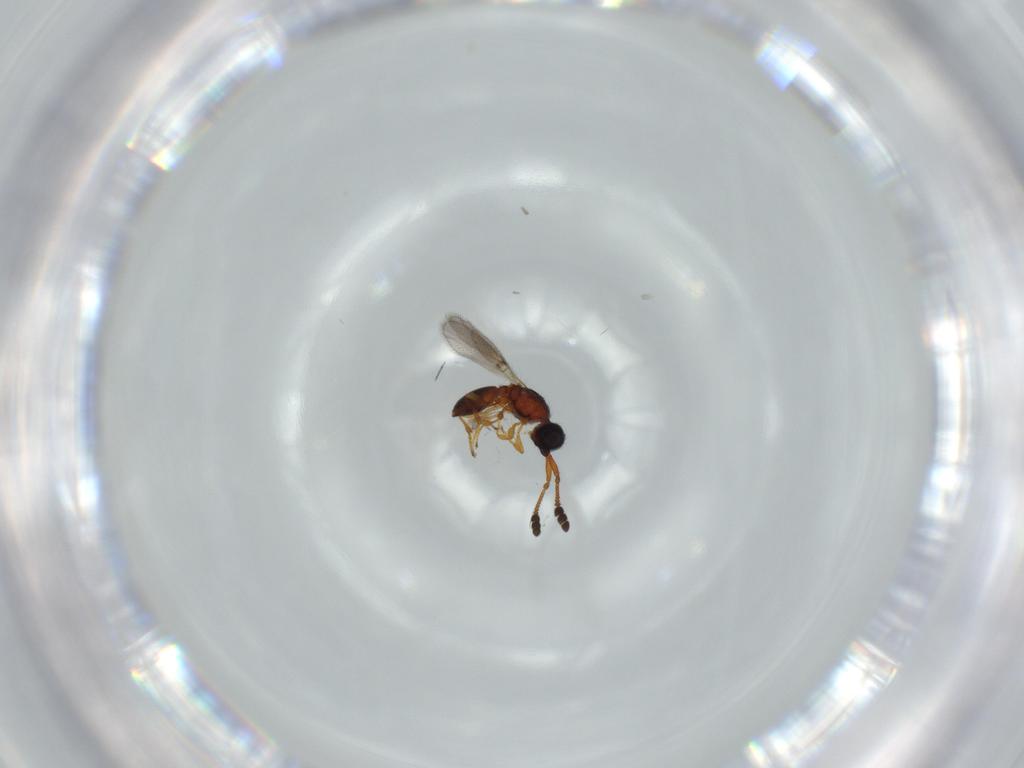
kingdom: Animalia
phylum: Arthropoda
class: Insecta
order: Hymenoptera
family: Diapriidae
